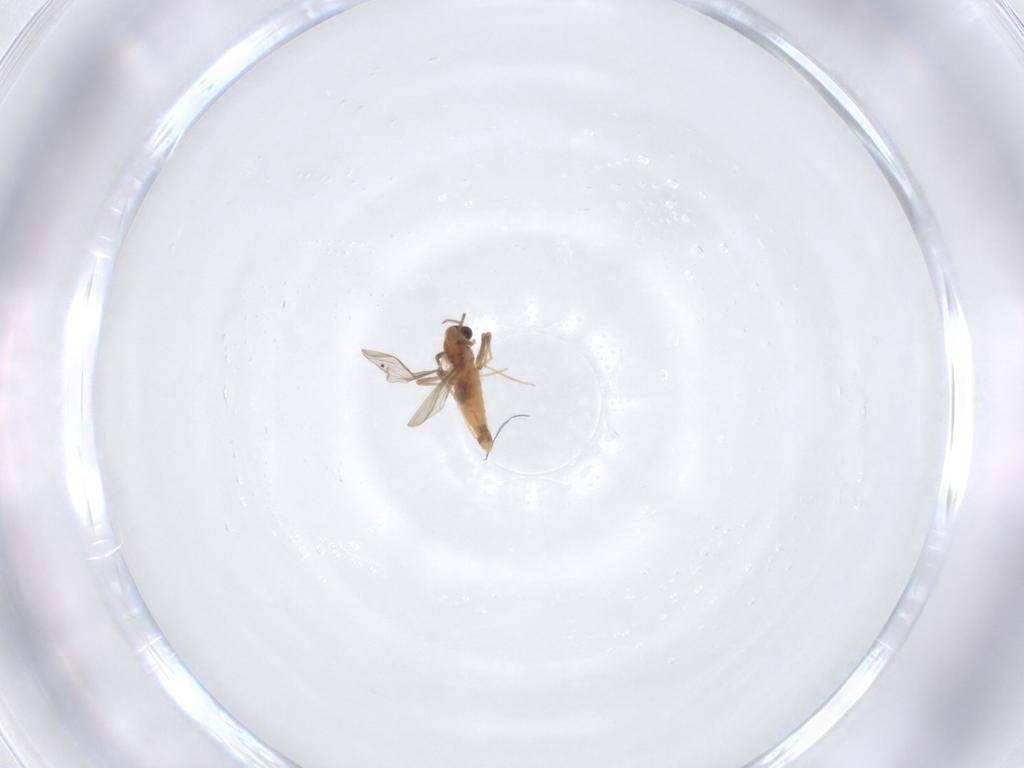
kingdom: Animalia
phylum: Arthropoda
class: Insecta
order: Diptera
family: Chironomidae
